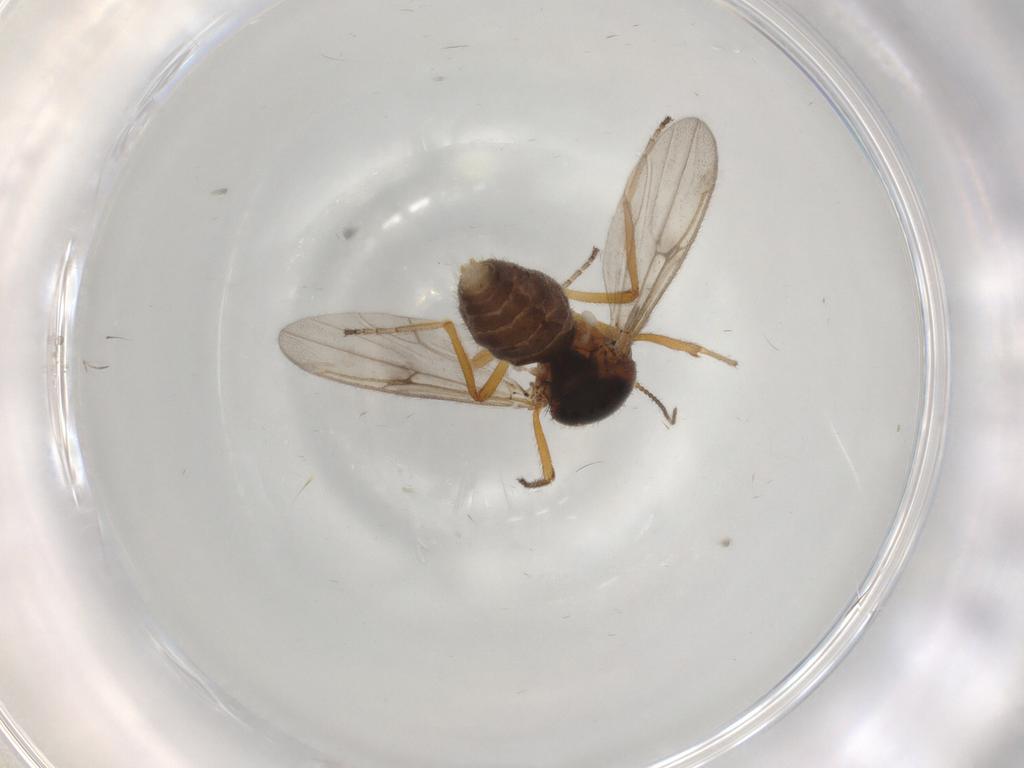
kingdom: Animalia
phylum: Arthropoda
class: Insecta
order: Diptera
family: Ceratopogonidae
